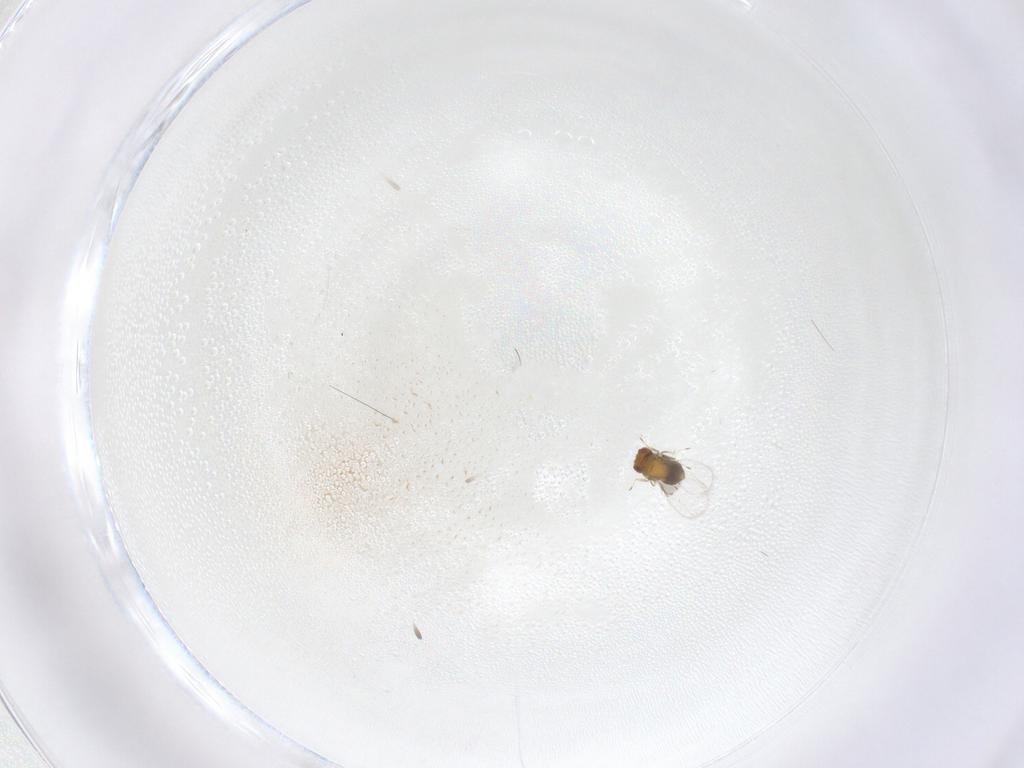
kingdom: Animalia
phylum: Arthropoda
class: Insecta
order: Hymenoptera
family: Trichogrammatidae
